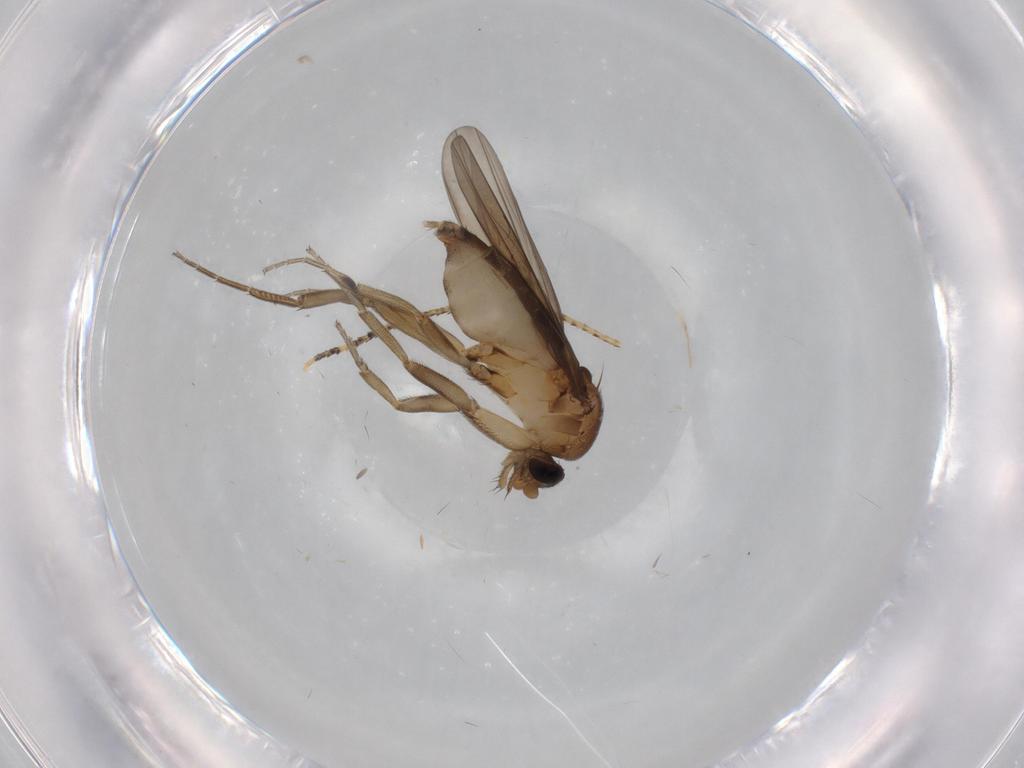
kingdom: Animalia
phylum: Arthropoda
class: Insecta
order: Diptera
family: Phoridae
